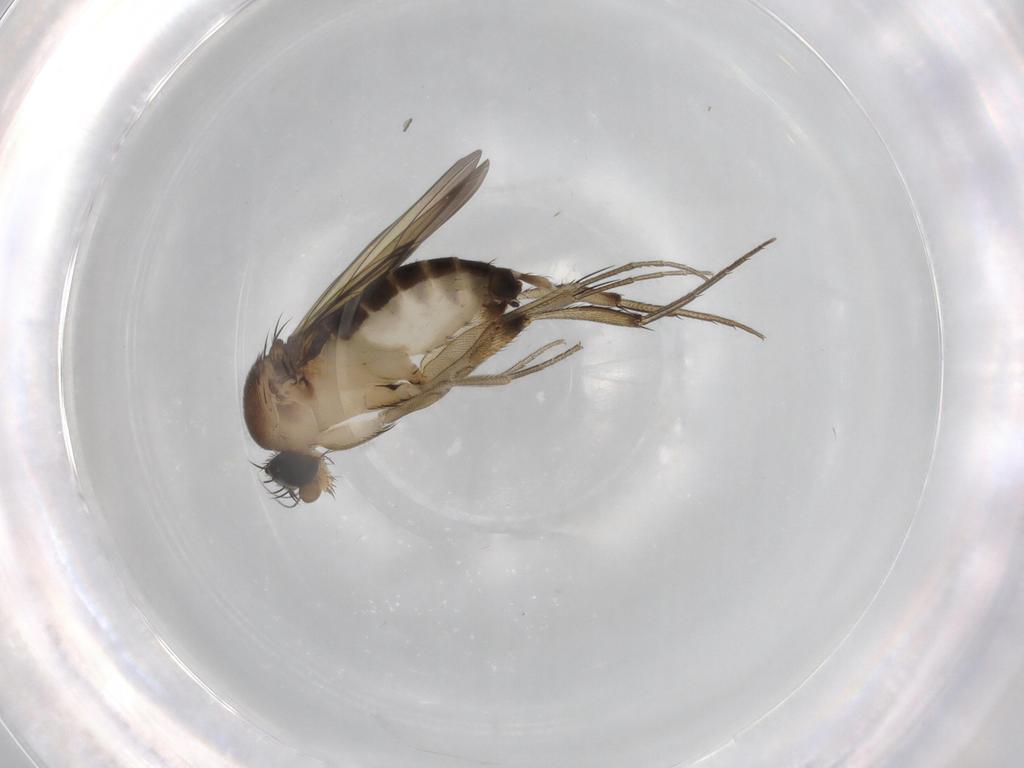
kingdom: Animalia
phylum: Arthropoda
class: Insecta
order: Diptera
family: Phoridae
